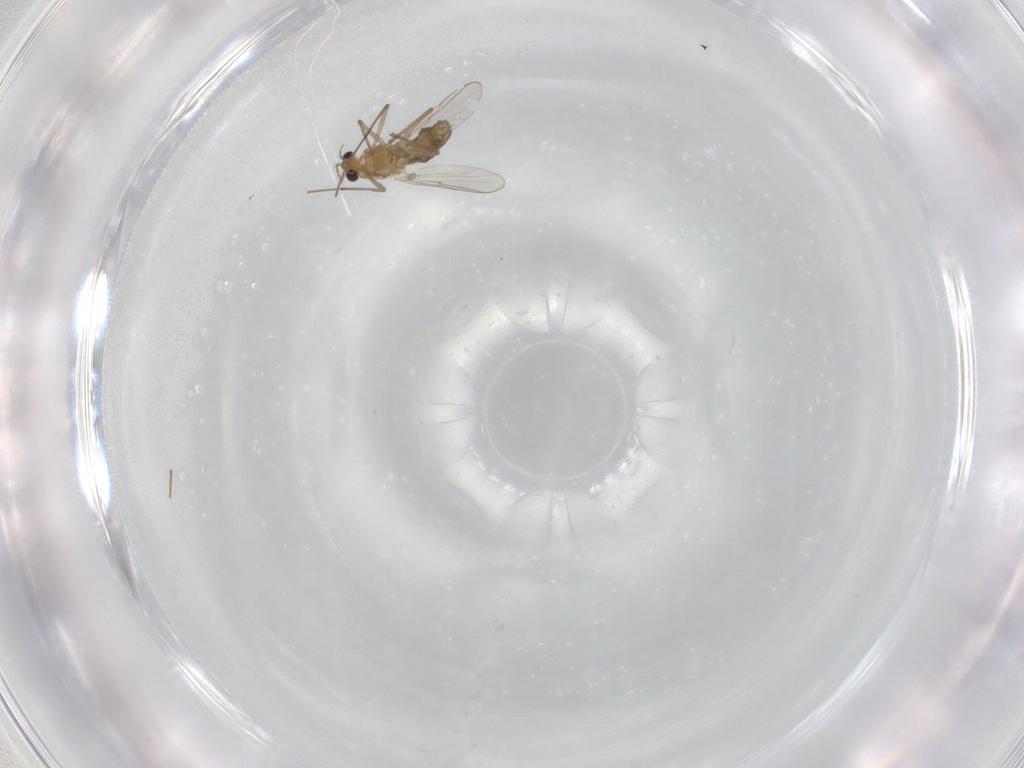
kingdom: Animalia
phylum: Arthropoda
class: Insecta
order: Diptera
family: Chironomidae
